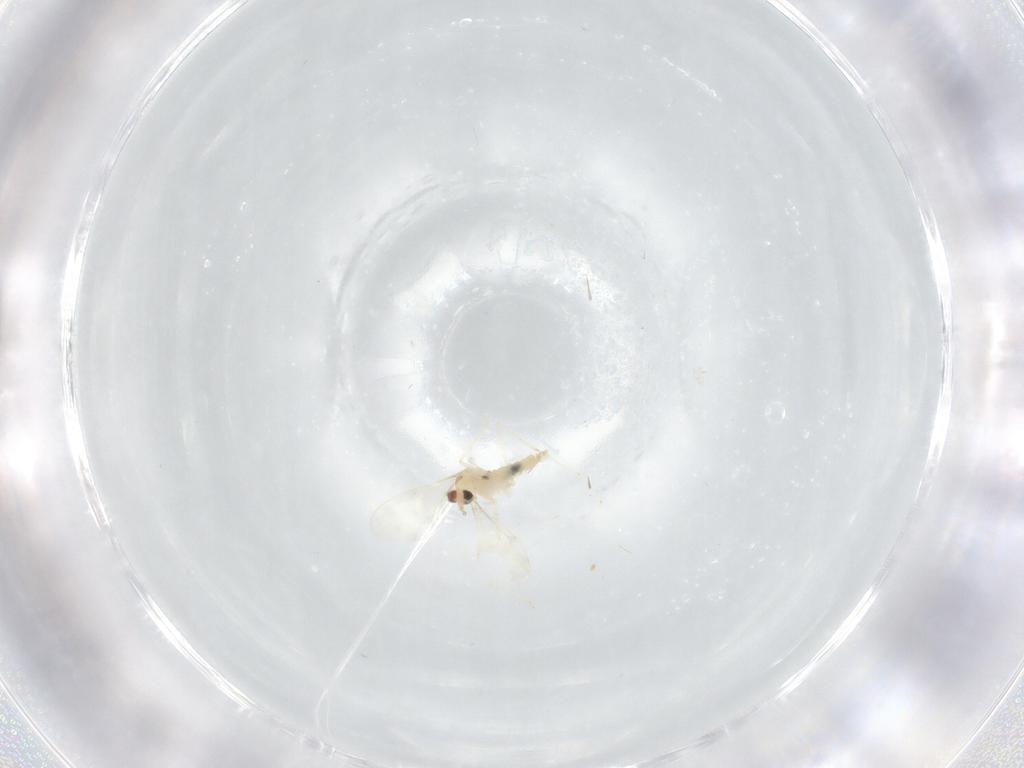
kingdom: Animalia
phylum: Arthropoda
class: Insecta
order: Diptera
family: Cecidomyiidae
